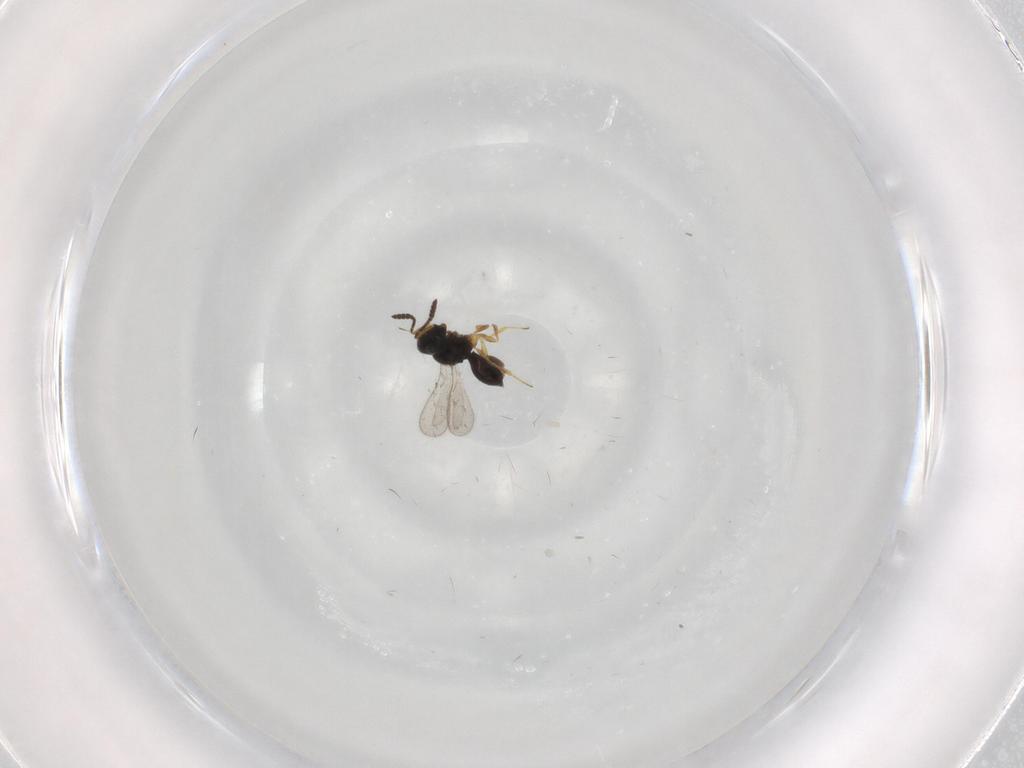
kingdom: Animalia
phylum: Arthropoda
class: Insecta
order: Hymenoptera
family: Scelionidae
